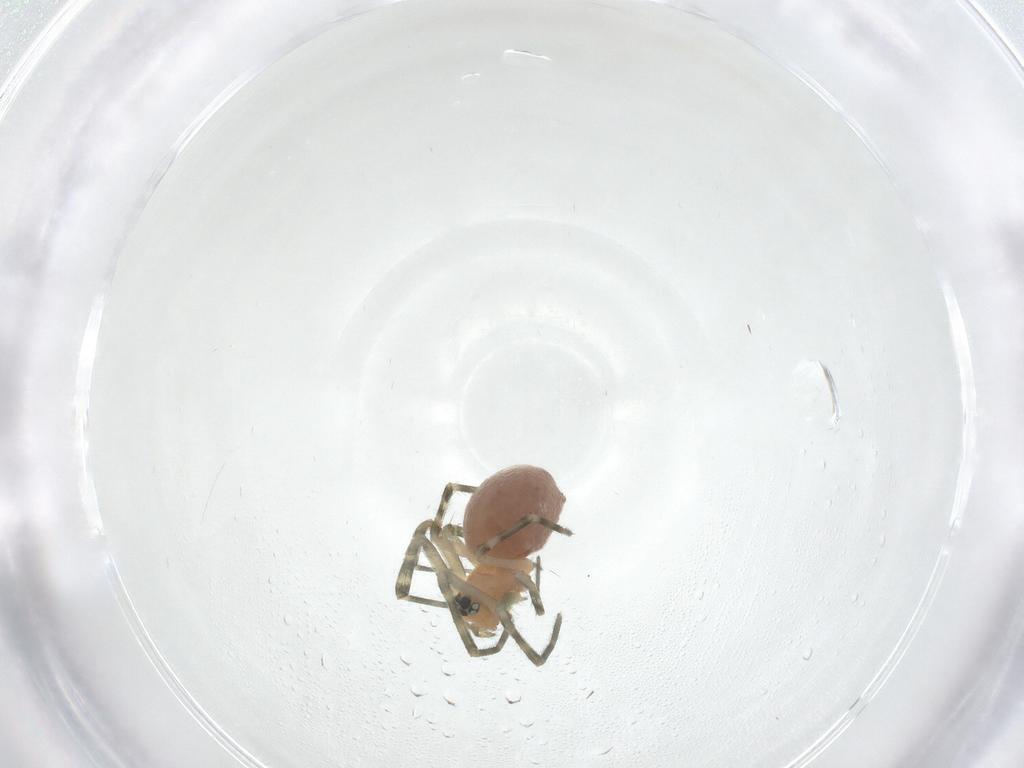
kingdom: Animalia
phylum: Arthropoda
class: Arachnida
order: Araneae
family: Linyphiidae
